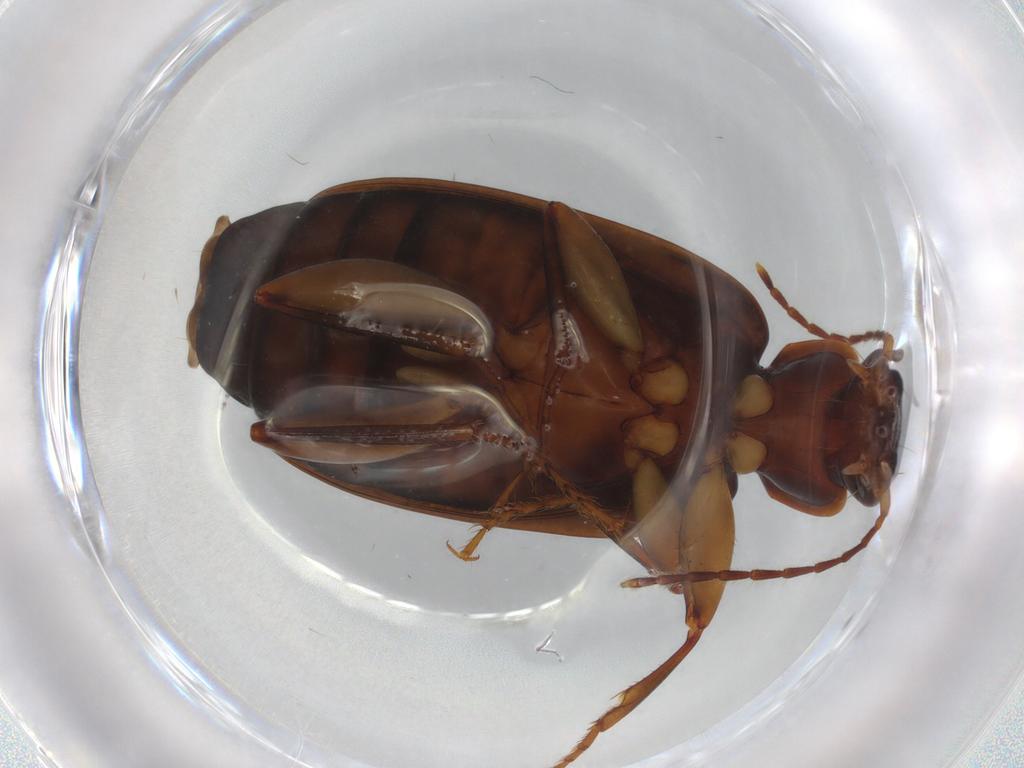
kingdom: Animalia
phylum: Arthropoda
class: Insecta
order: Coleoptera
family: Carabidae
